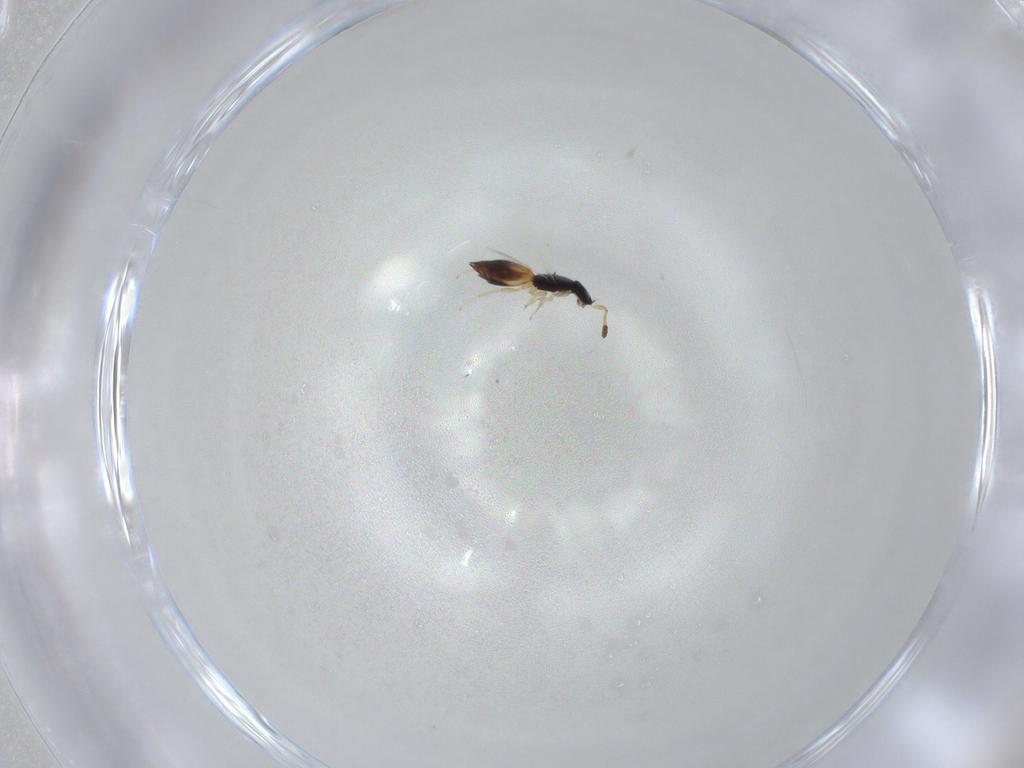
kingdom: Animalia
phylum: Arthropoda
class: Insecta
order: Hymenoptera
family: Scelionidae
